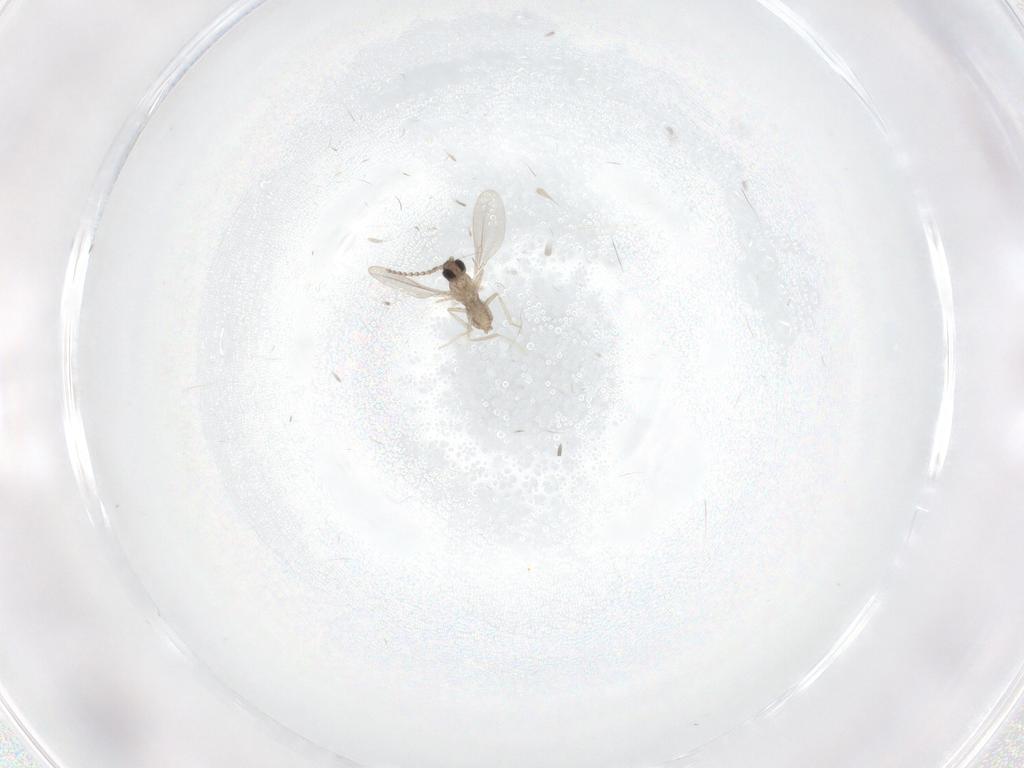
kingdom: Animalia
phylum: Arthropoda
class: Insecta
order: Diptera
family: Cecidomyiidae
